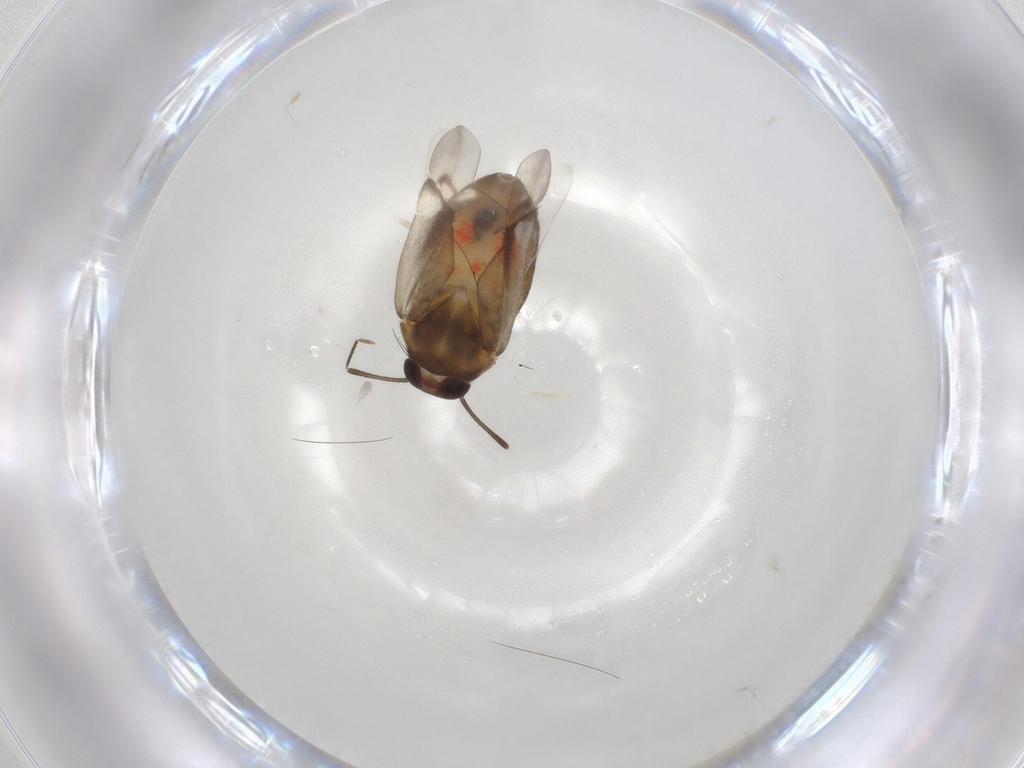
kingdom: Animalia
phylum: Arthropoda
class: Insecta
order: Hemiptera
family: Miridae
